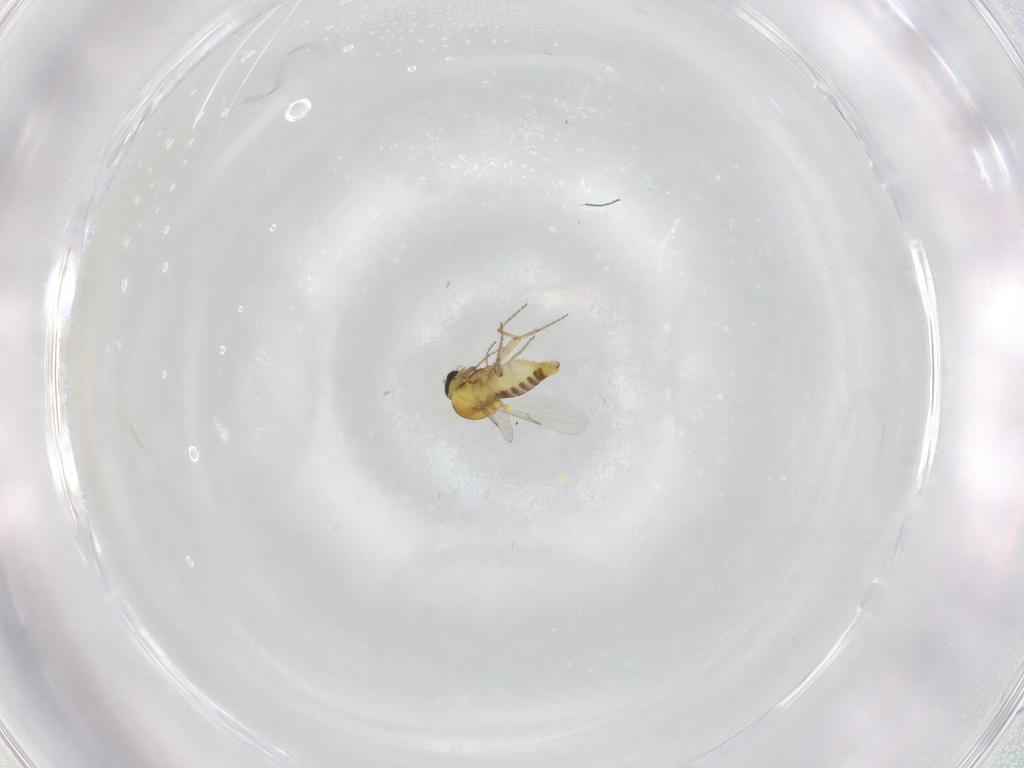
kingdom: Animalia
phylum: Arthropoda
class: Insecta
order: Diptera
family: Ceratopogonidae
